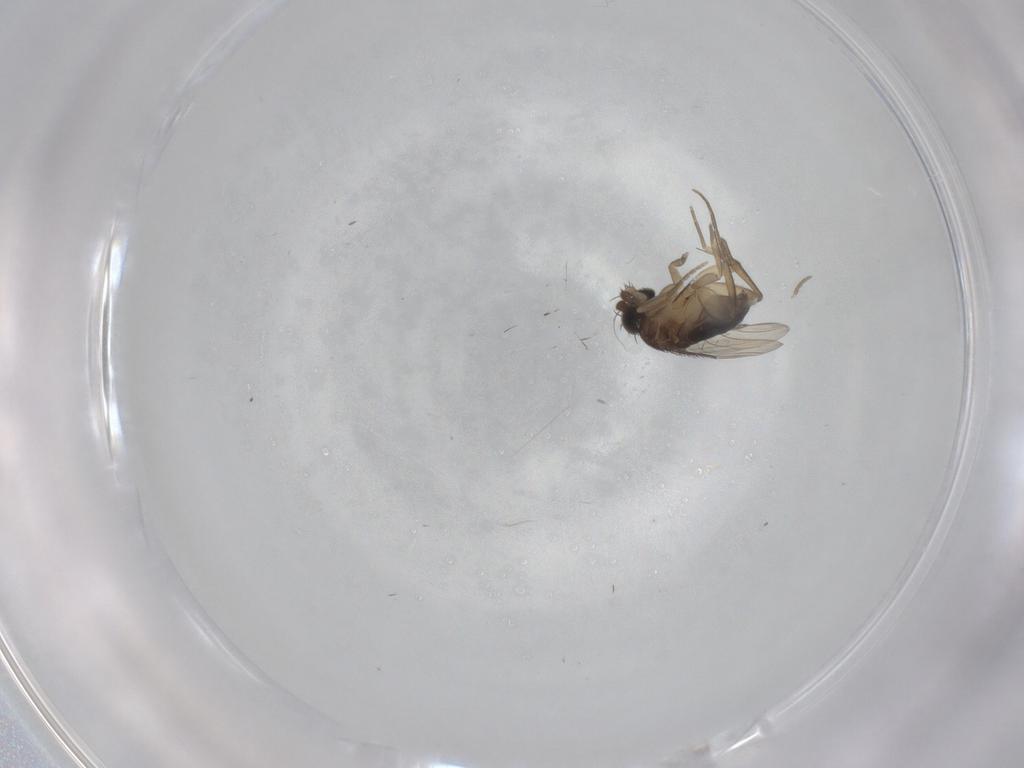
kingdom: Animalia
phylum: Arthropoda
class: Insecta
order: Diptera
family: Phoridae
